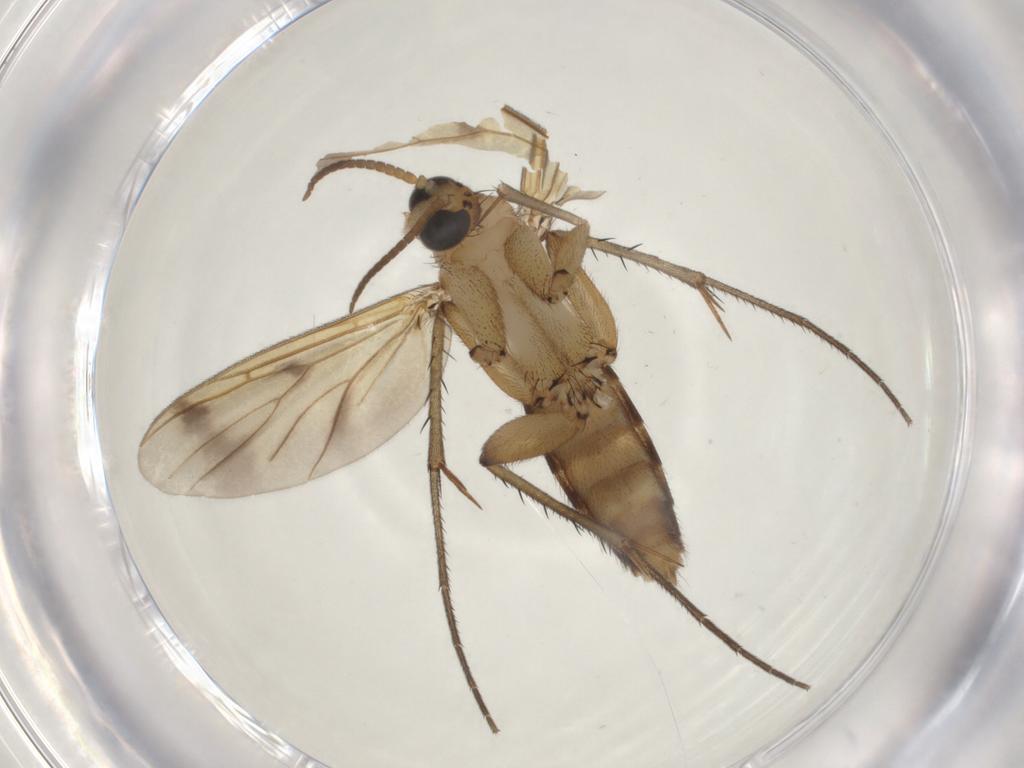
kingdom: Animalia
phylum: Arthropoda
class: Insecta
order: Diptera
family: Mycetophilidae
